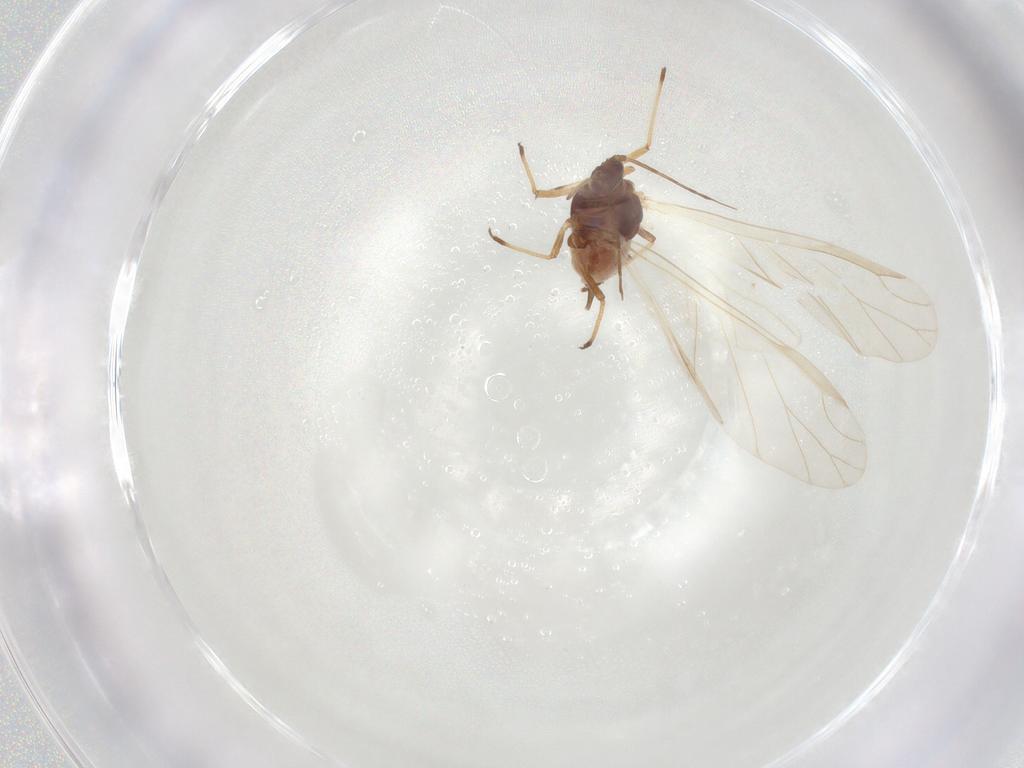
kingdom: Animalia
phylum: Arthropoda
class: Insecta
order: Hemiptera
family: Aphididae
